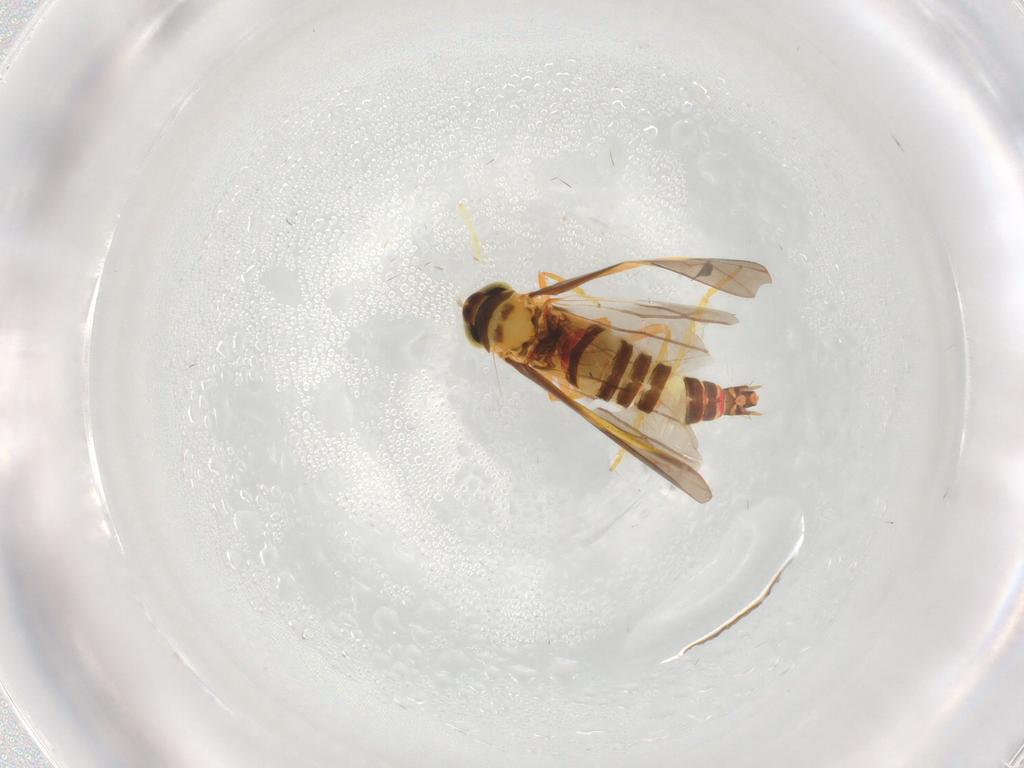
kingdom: Animalia
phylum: Arthropoda
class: Insecta
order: Hemiptera
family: Cicadellidae
